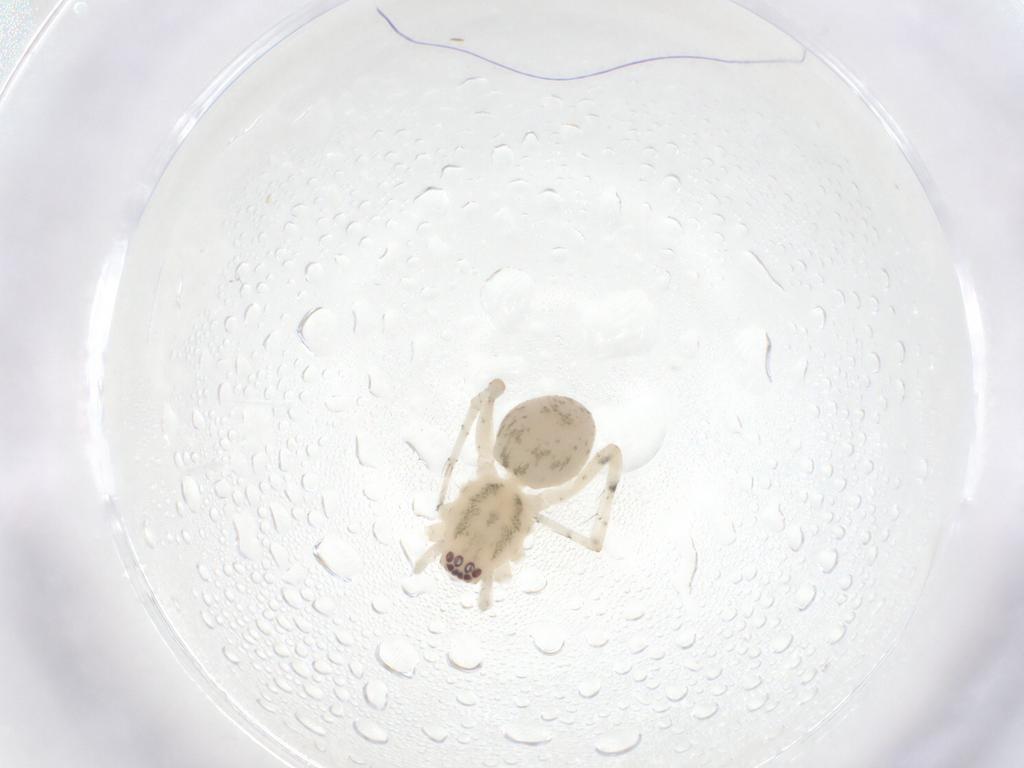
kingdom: Animalia
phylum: Arthropoda
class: Arachnida
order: Araneae
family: Anyphaenidae
